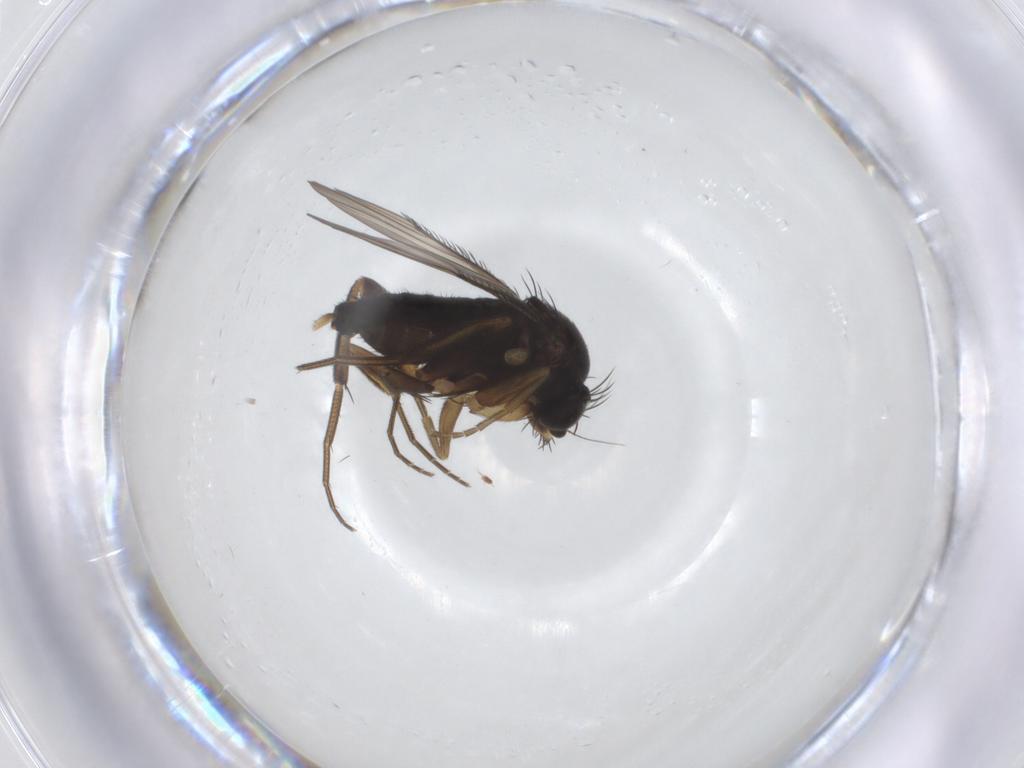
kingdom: Animalia
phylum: Arthropoda
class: Insecta
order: Diptera
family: Phoridae
